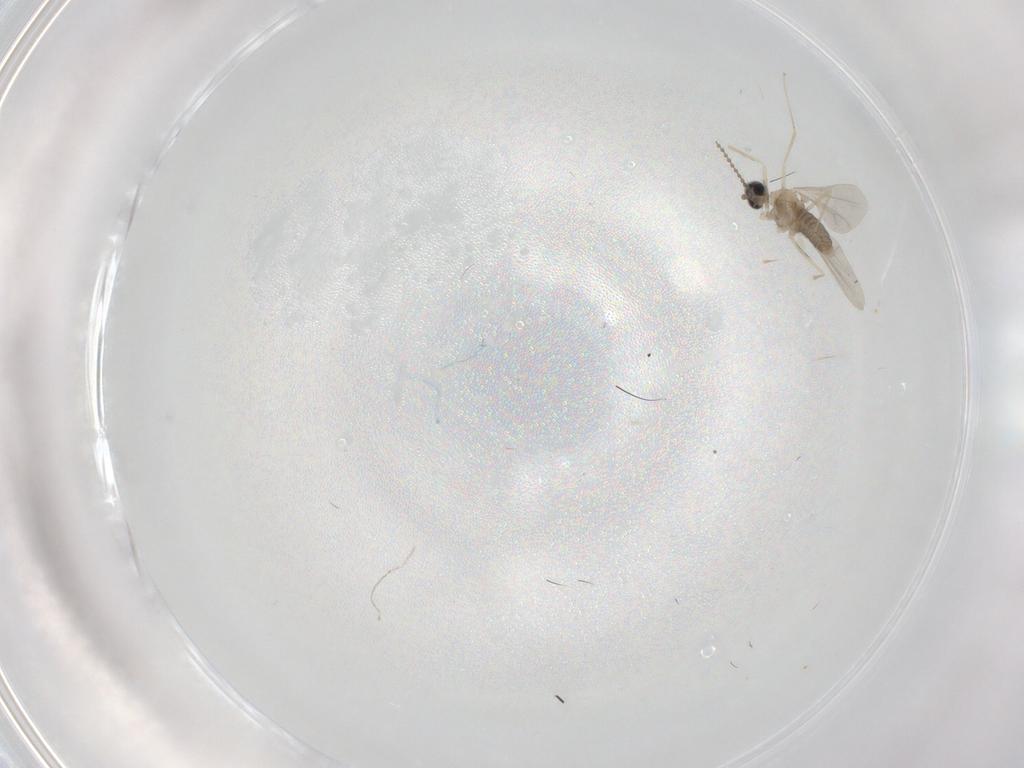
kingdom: Animalia
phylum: Arthropoda
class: Insecta
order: Diptera
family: Cecidomyiidae
